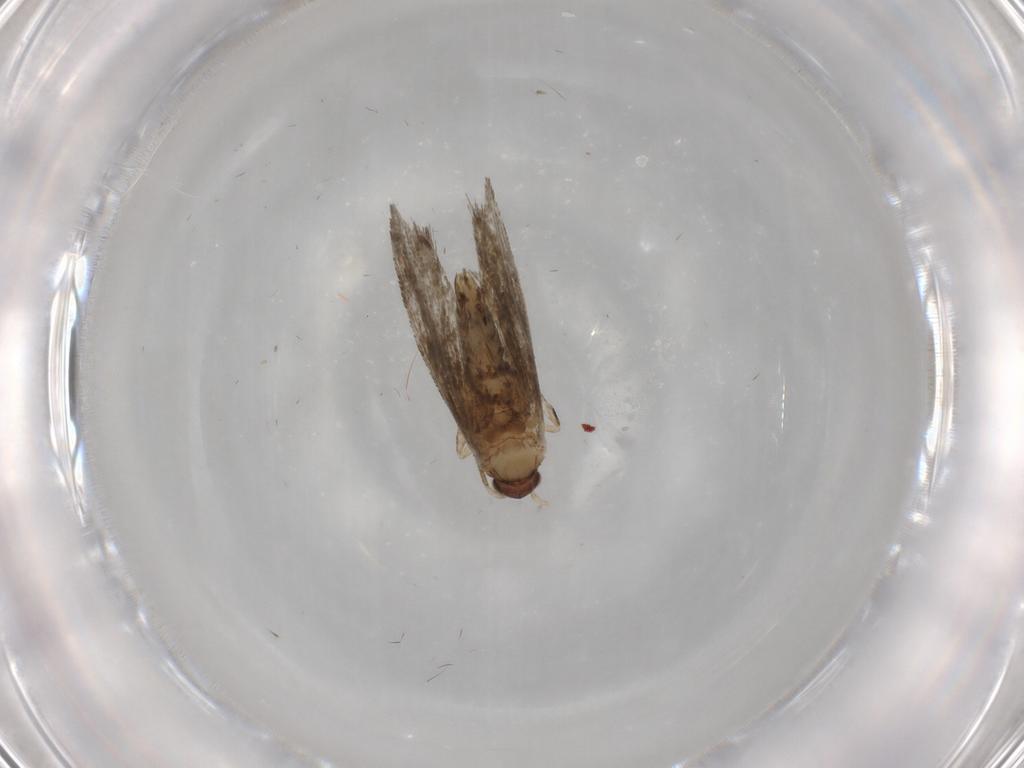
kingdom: Animalia
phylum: Arthropoda
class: Insecta
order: Lepidoptera
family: Tineidae
